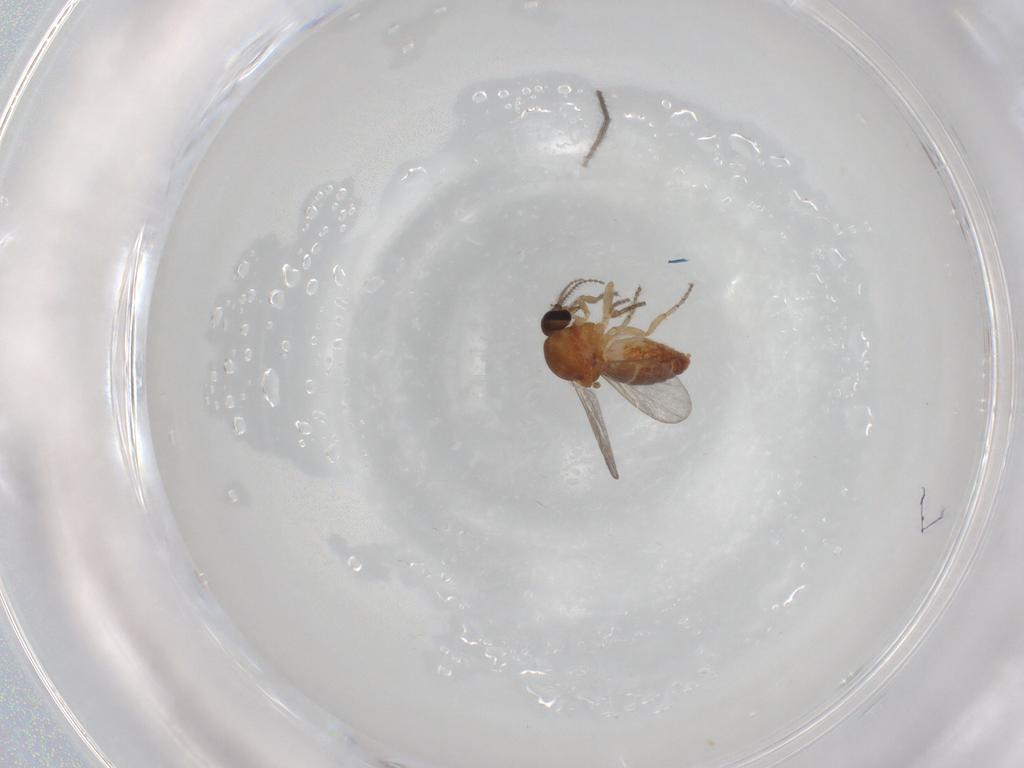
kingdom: Animalia
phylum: Arthropoda
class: Insecta
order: Diptera
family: Ceratopogonidae
